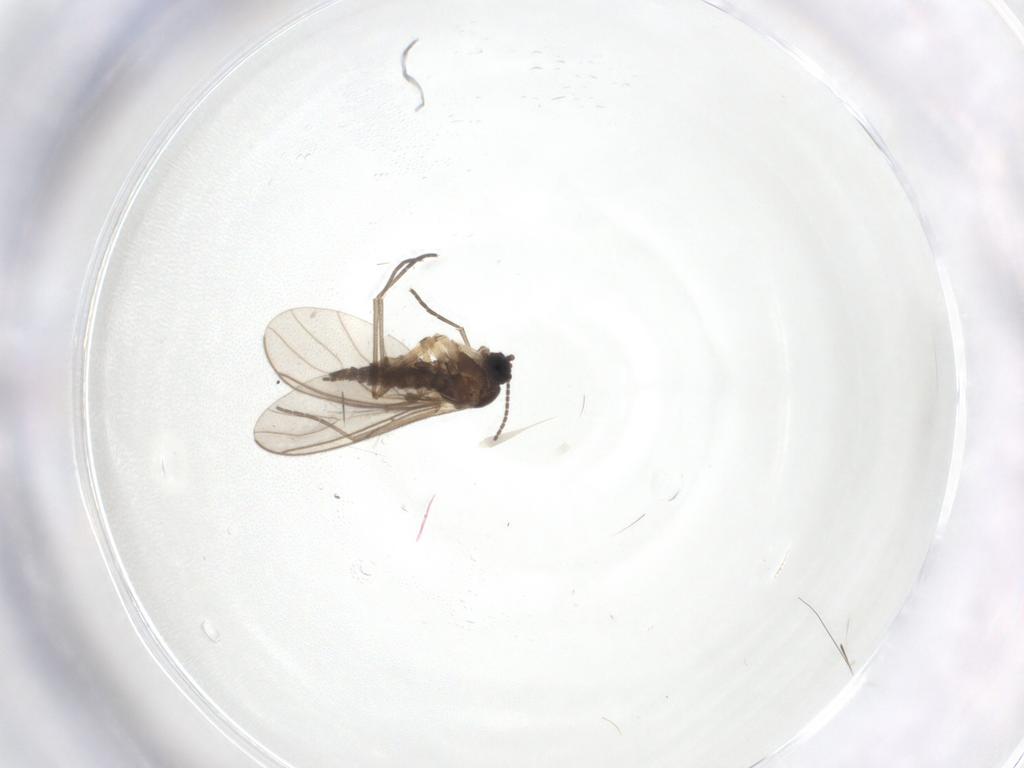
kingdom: Animalia
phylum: Arthropoda
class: Insecta
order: Diptera
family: Sciaridae
